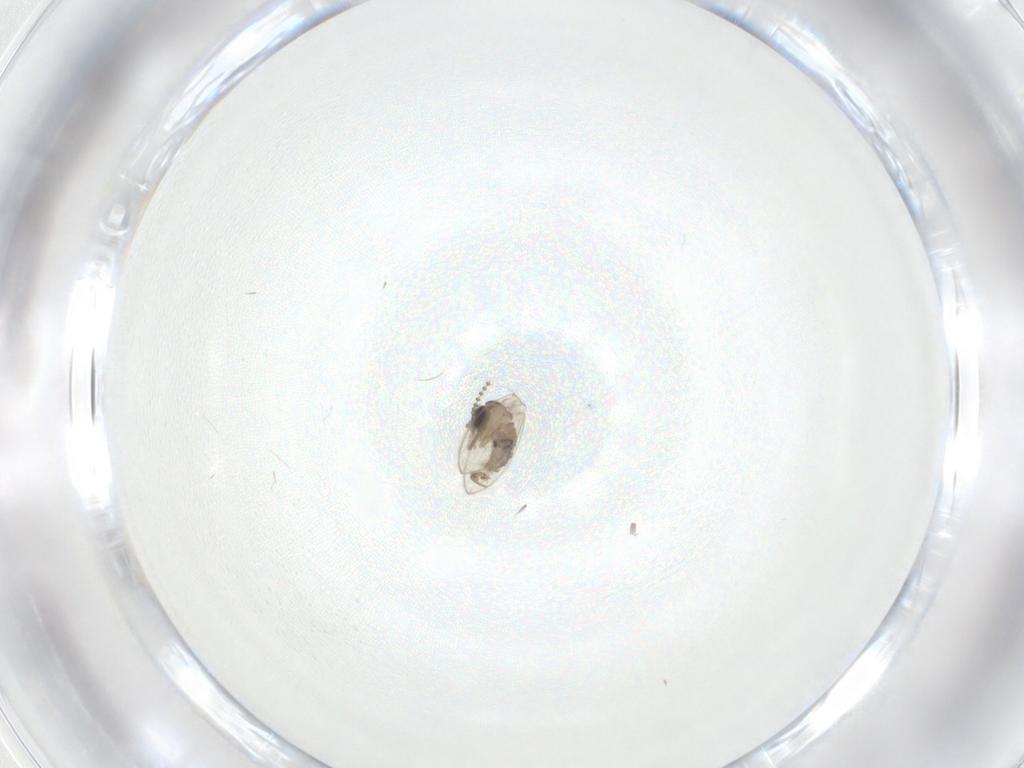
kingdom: Animalia
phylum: Arthropoda
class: Insecta
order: Diptera
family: Psychodidae
